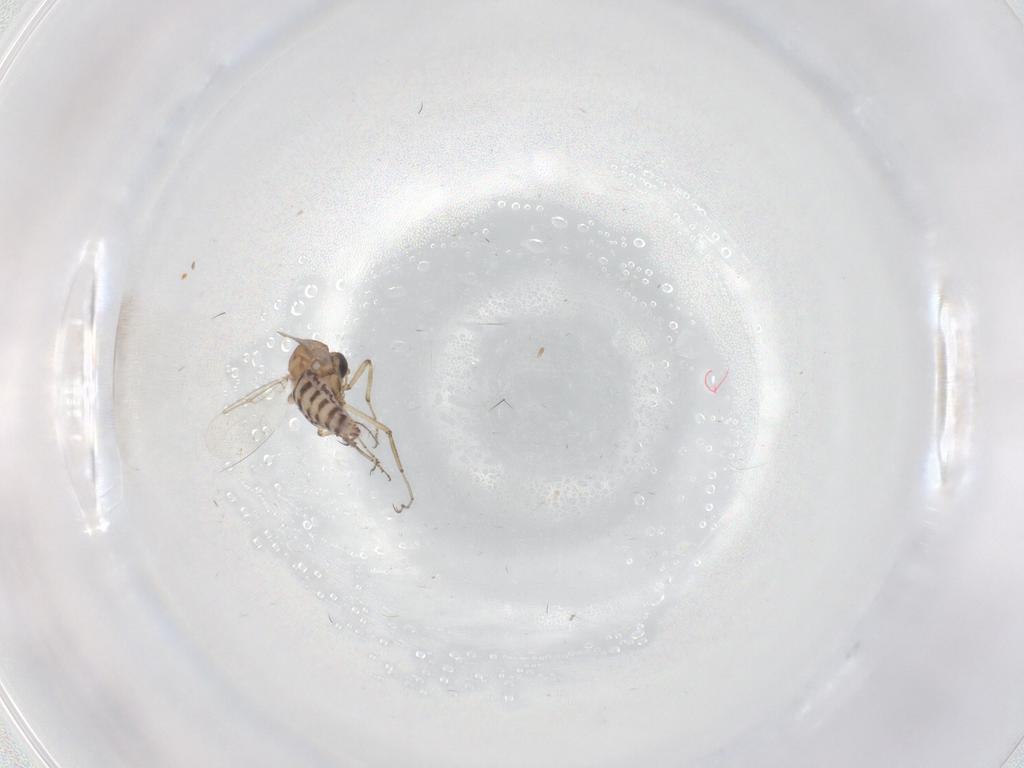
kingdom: Animalia
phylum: Arthropoda
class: Insecta
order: Diptera
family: Ceratopogonidae
